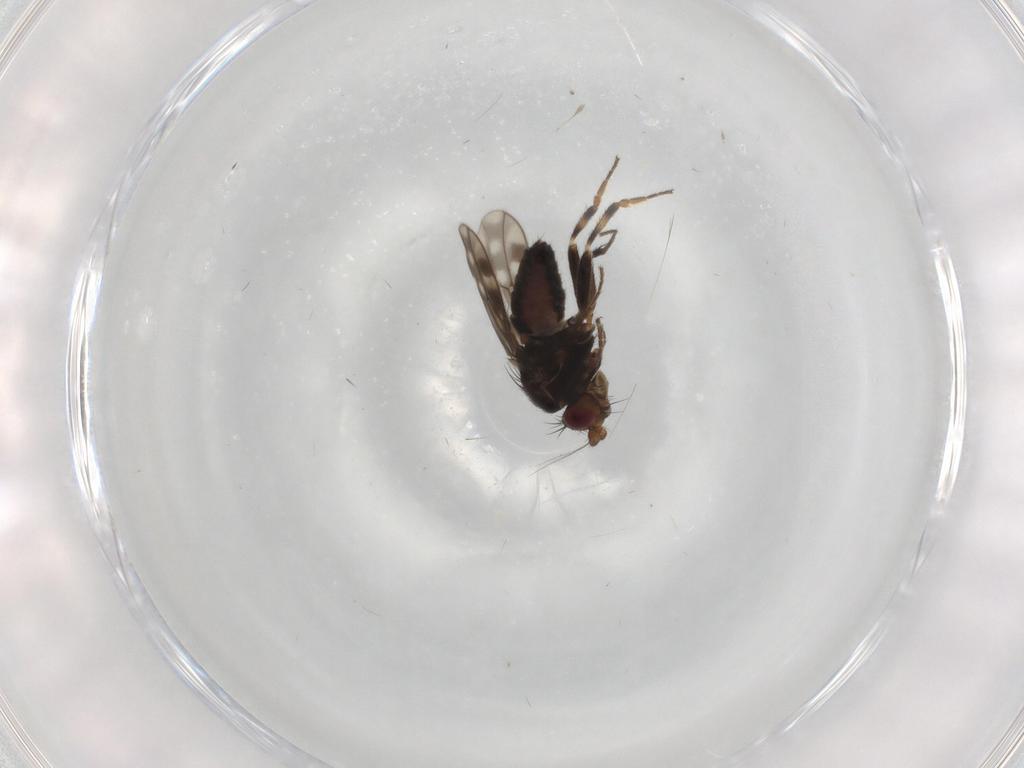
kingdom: Animalia
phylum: Arthropoda
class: Insecta
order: Diptera
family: Sphaeroceridae
